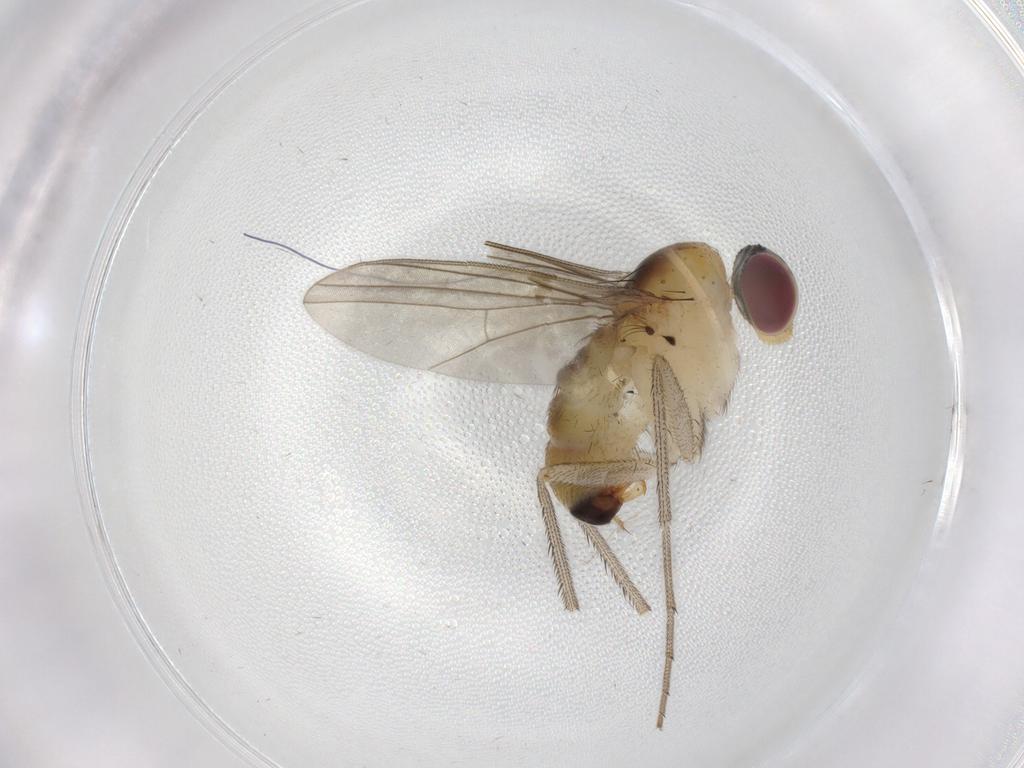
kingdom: Animalia
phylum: Arthropoda
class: Insecta
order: Diptera
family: Dolichopodidae
